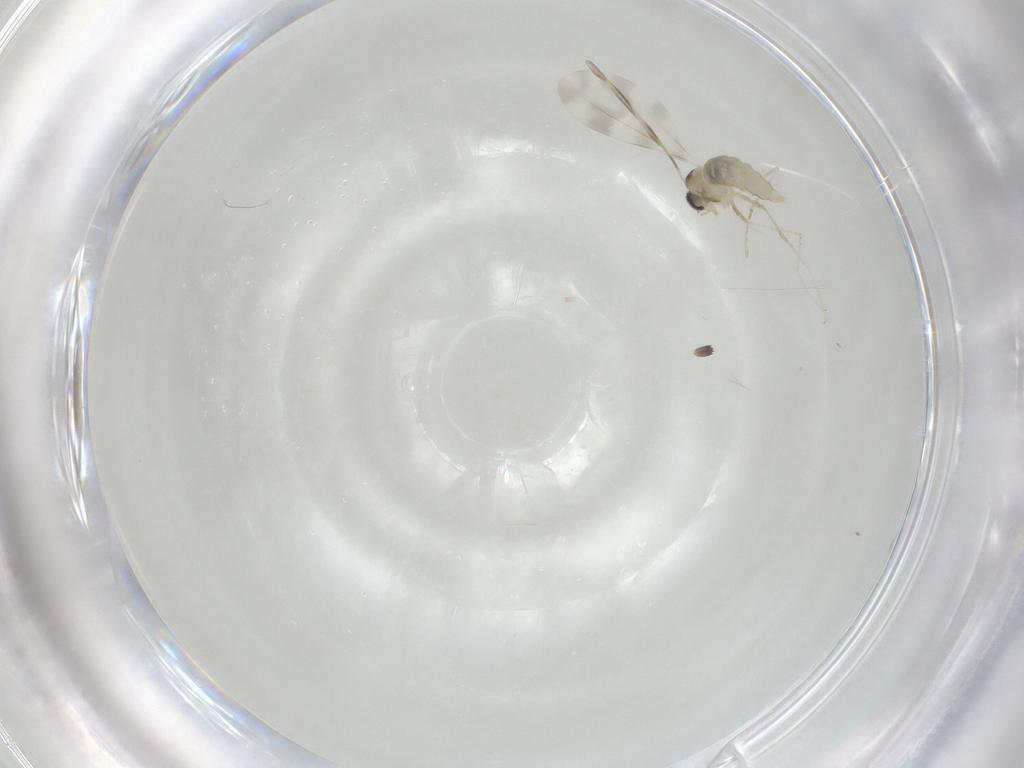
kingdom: Animalia
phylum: Arthropoda
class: Insecta
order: Diptera
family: Cecidomyiidae
